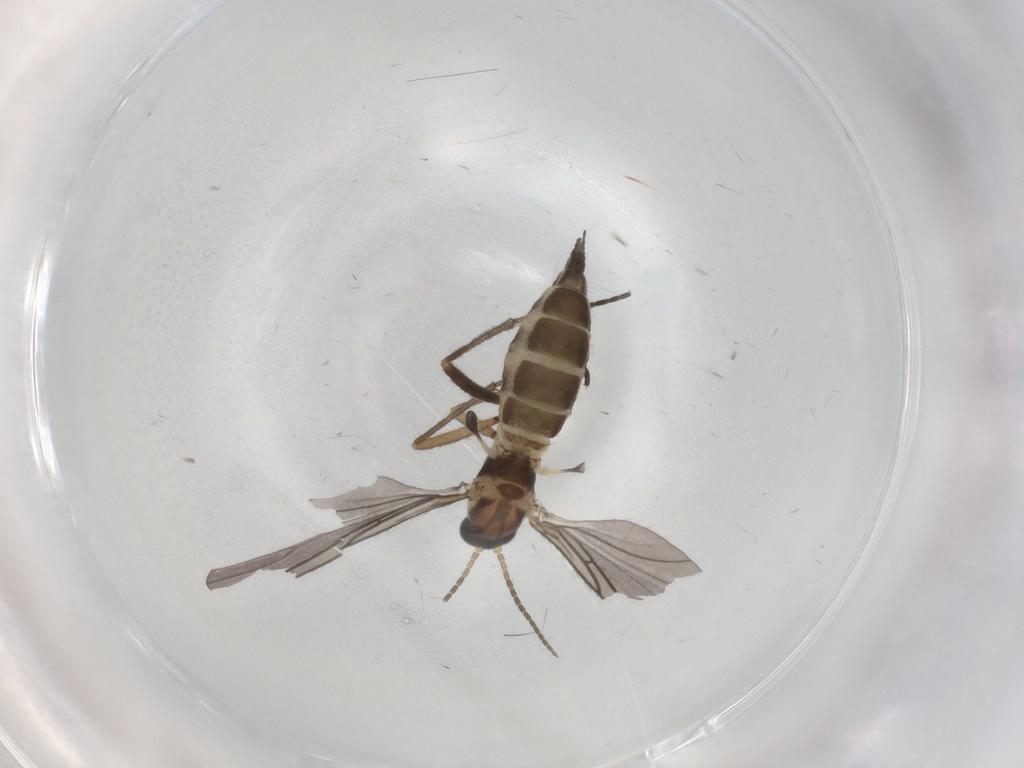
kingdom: Animalia
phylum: Arthropoda
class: Insecta
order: Diptera
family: Sciaridae
